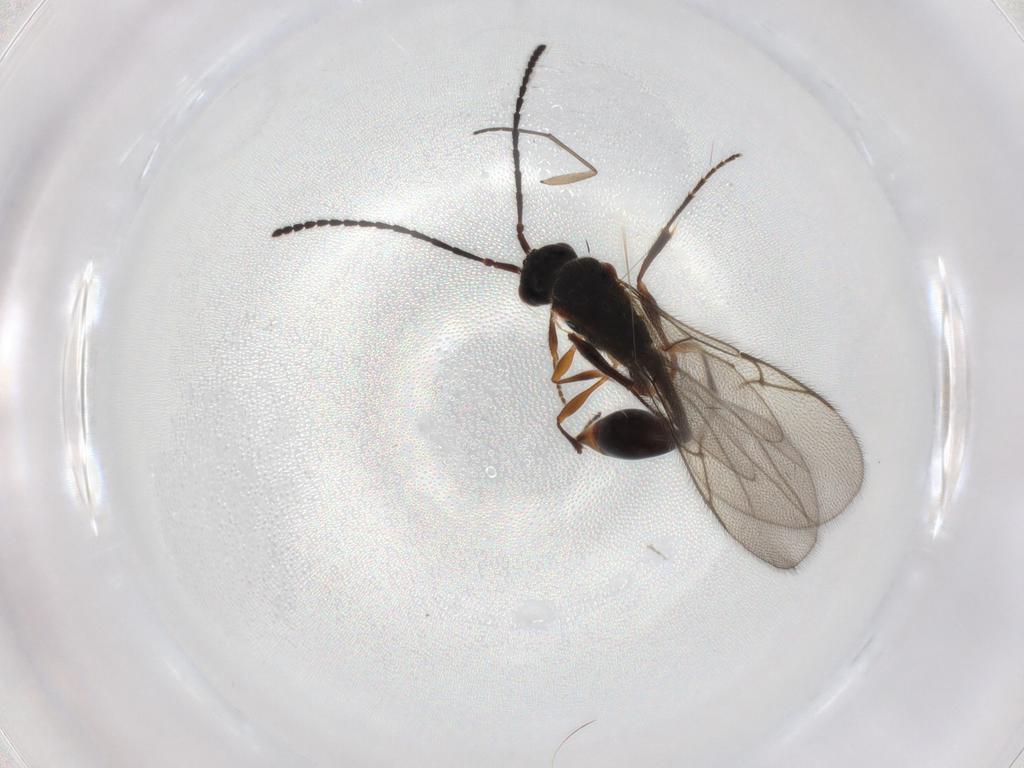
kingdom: Animalia
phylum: Arthropoda
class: Insecta
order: Hymenoptera
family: Diapriidae
